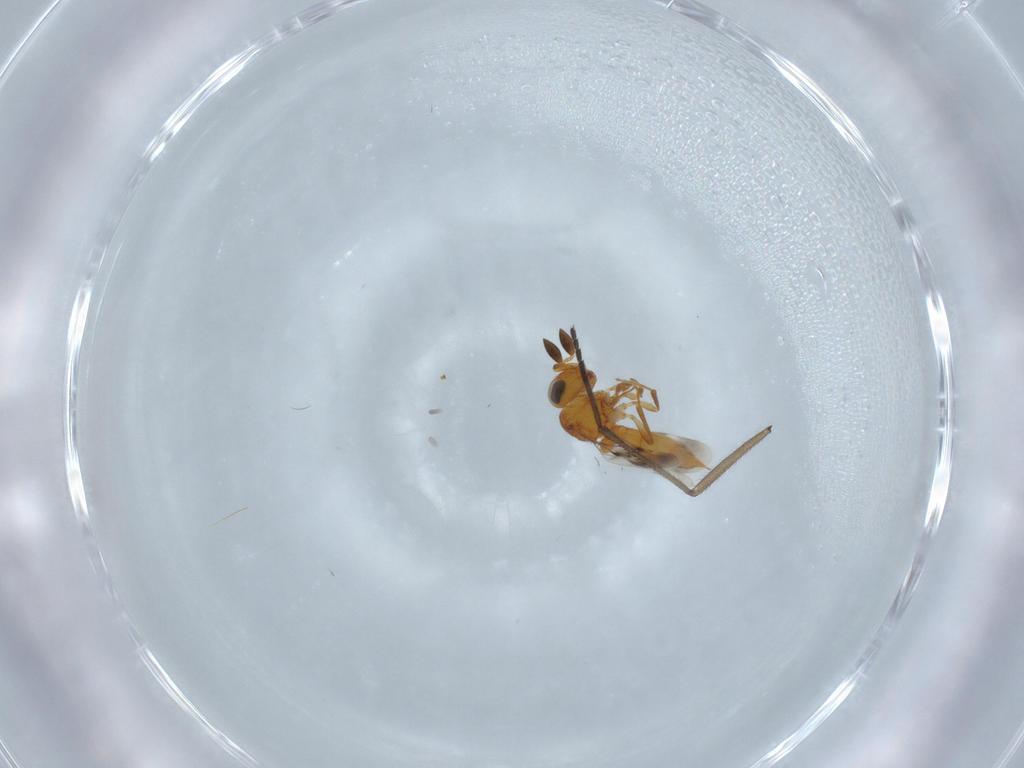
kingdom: Animalia
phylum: Arthropoda
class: Insecta
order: Hymenoptera
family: Scelionidae
